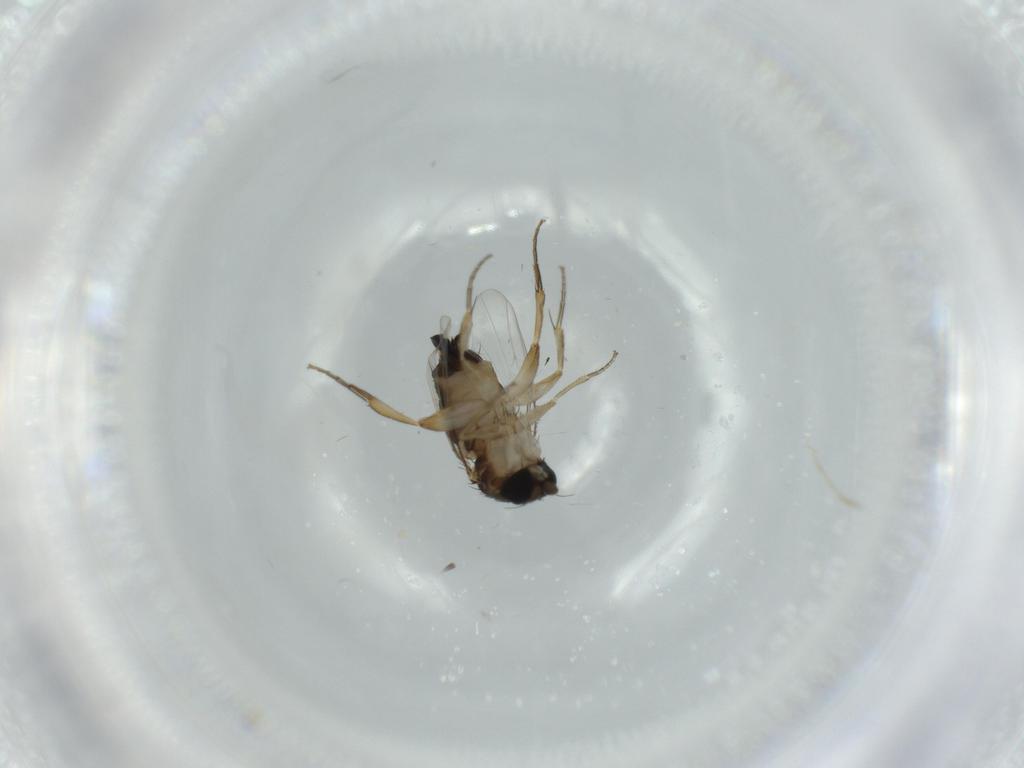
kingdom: Animalia
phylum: Arthropoda
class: Insecta
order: Diptera
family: Phoridae
